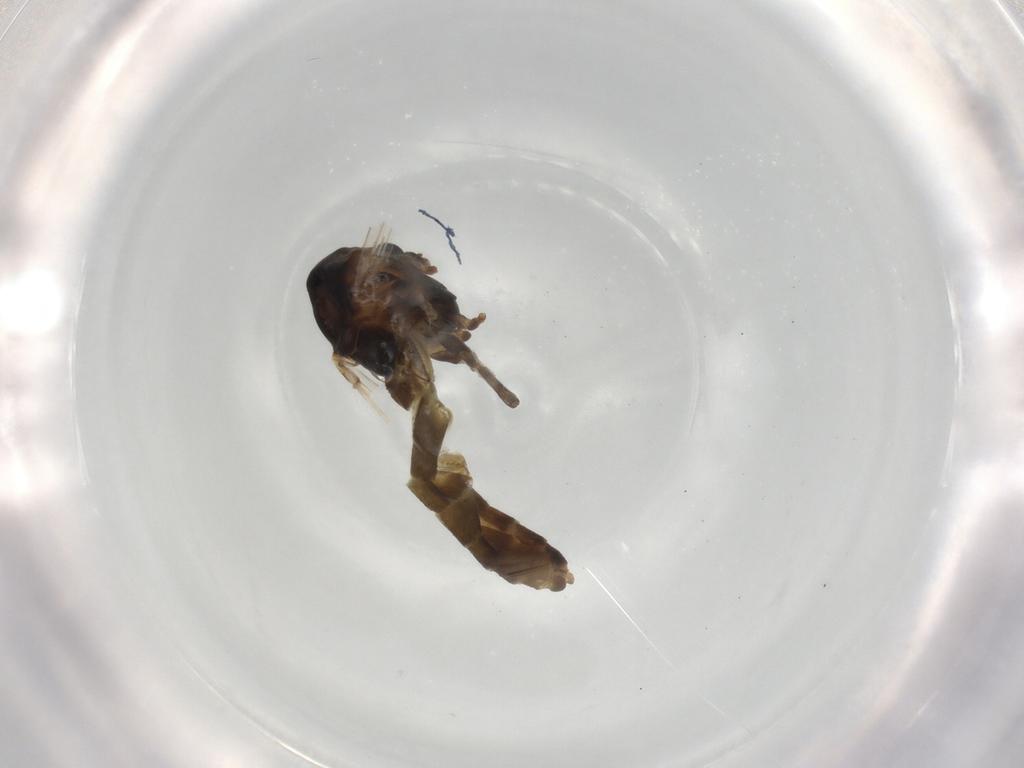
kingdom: Animalia
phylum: Arthropoda
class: Insecta
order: Diptera
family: Chironomidae
